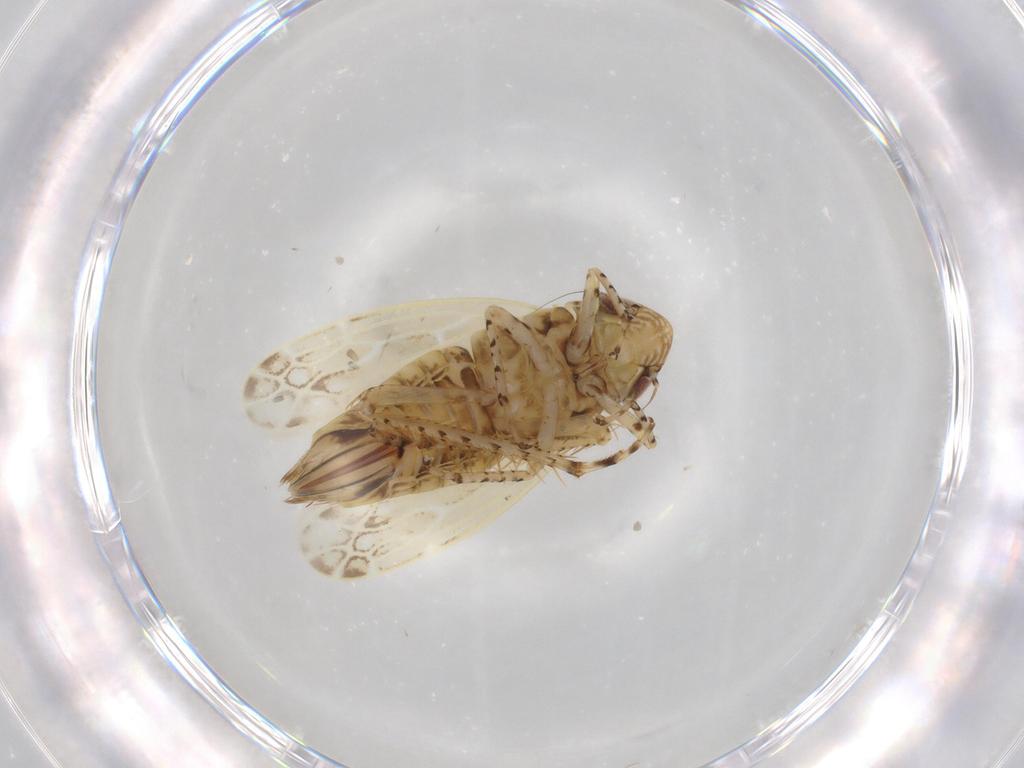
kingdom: Animalia
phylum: Arthropoda
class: Insecta
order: Hemiptera
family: Cicadellidae
